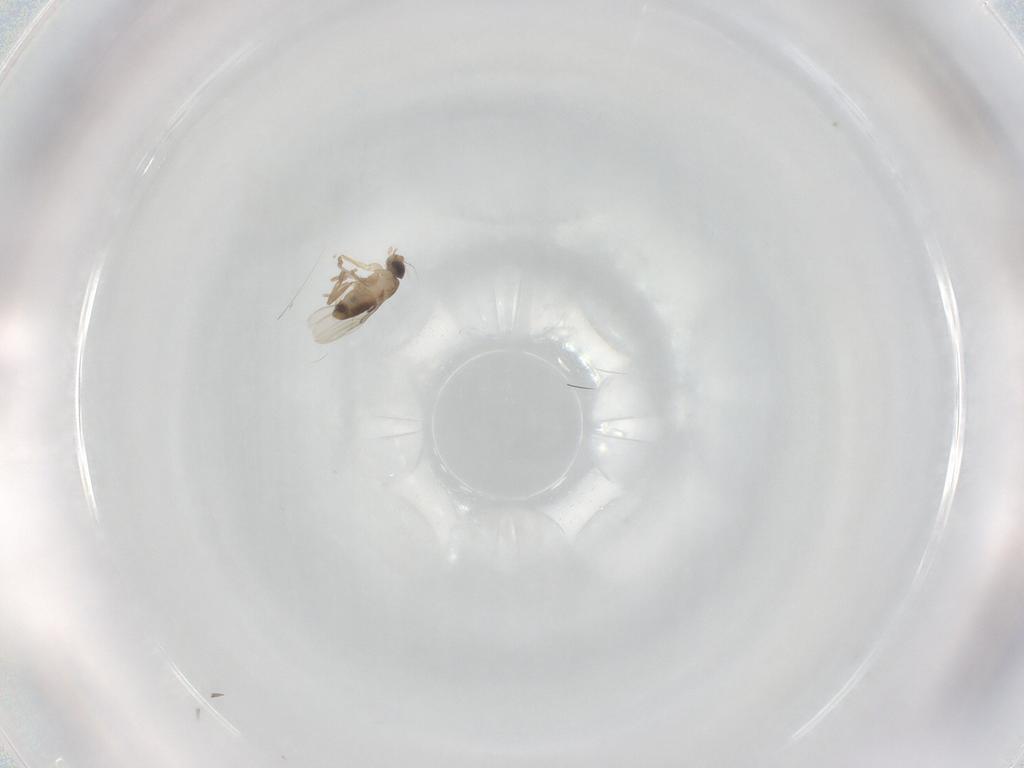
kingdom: Animalia
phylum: Arthropoda
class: Insecta
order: Diptera
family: Phoridae
